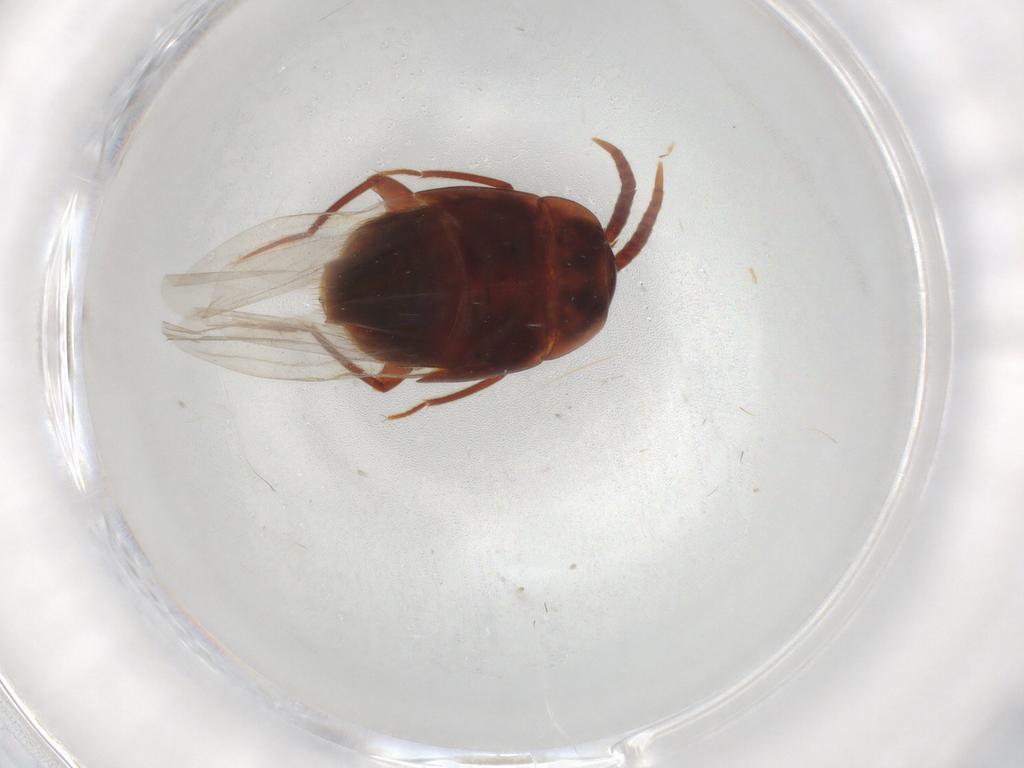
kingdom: Animalia
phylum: Arthropoda
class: Insecta
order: Coleoptera
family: Staphylinidae
